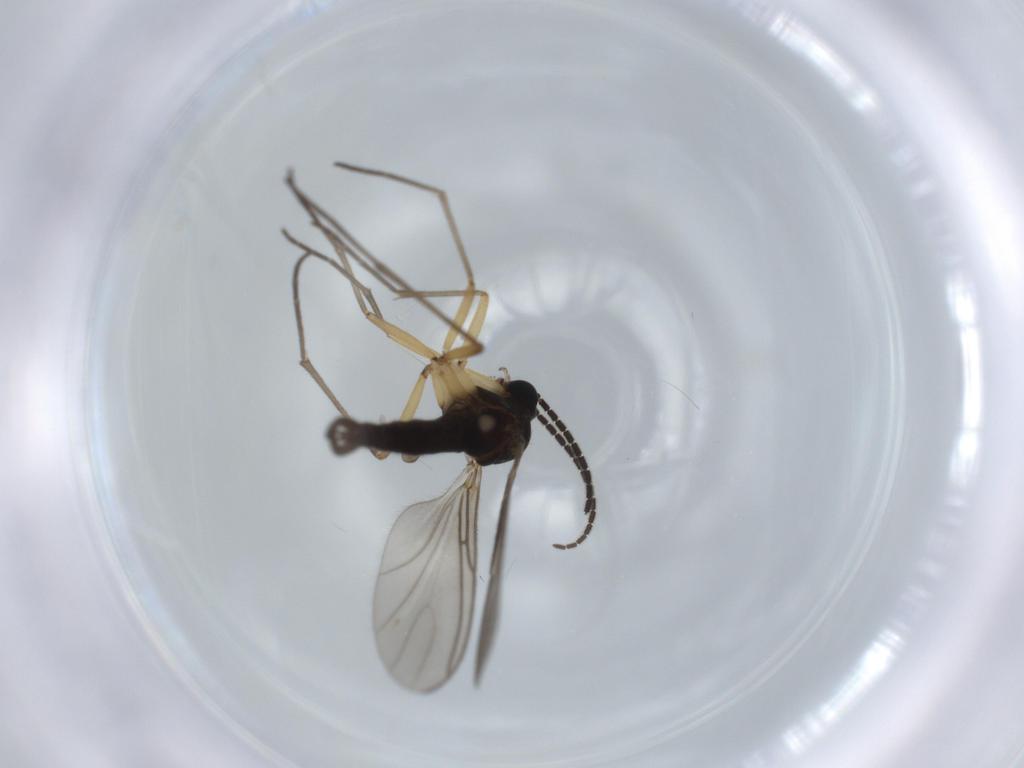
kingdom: Animalia
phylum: Arthropoda
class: Insecta
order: Diptera
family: Sciaridae
